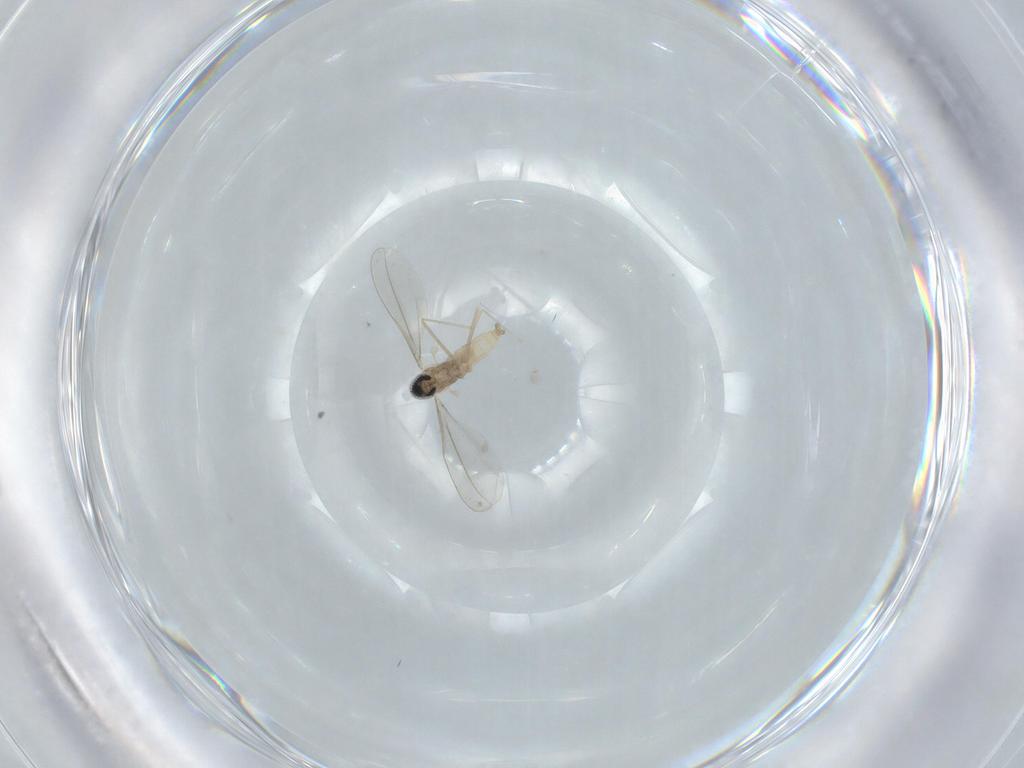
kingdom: Animalia
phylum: Arthropoda
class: Insecta
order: Diptera
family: Cecidomyiidae
